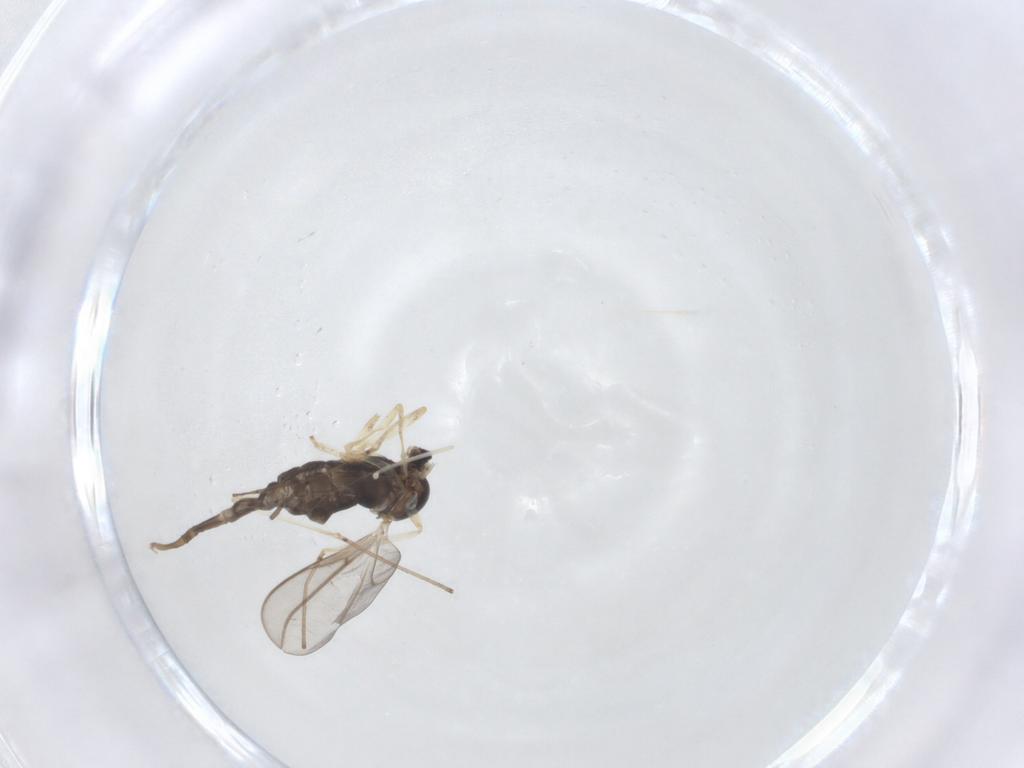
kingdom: Animalia
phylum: Arthropoda
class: Insecta
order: Diptera
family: Cecidomyiidae
